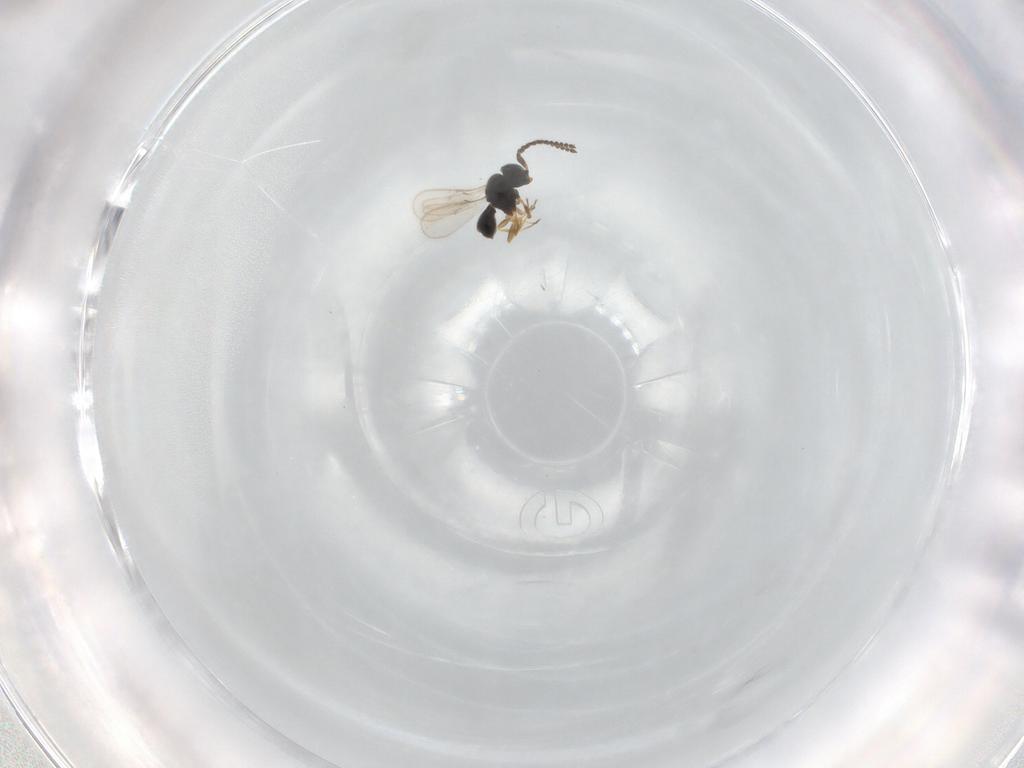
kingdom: Animalia
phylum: Arthropoda
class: Insecta
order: Hymenoptera
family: Scelionidae
